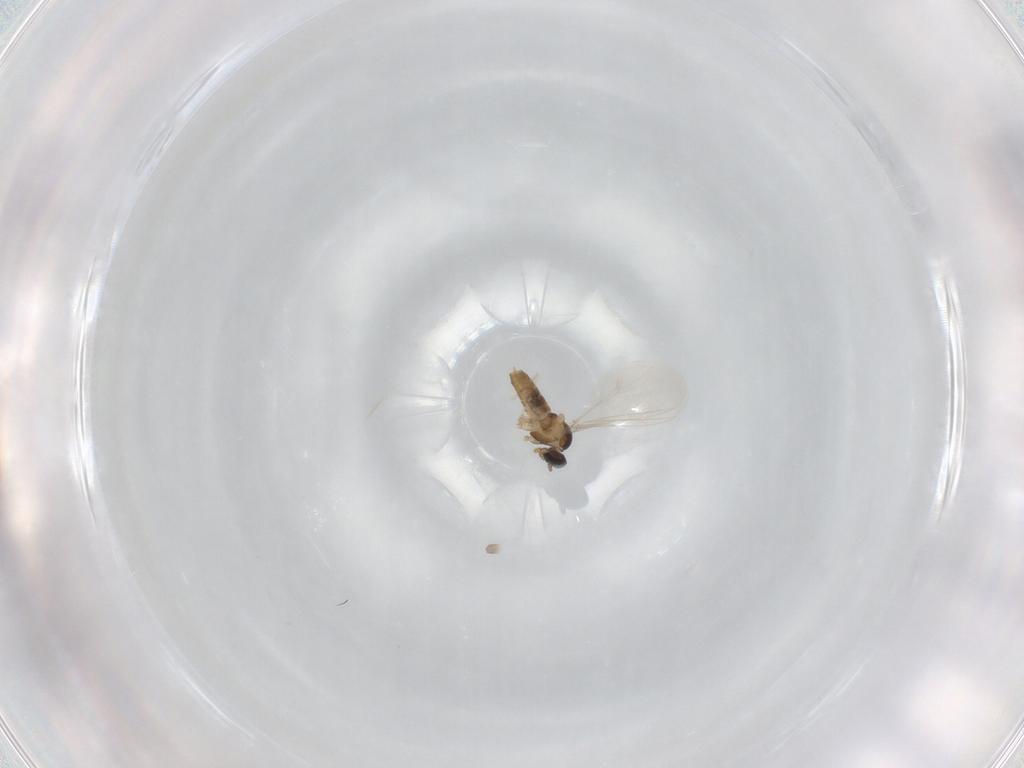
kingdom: Animalia
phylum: Arthropoda
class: Insecta
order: Diptera
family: Cecidomyiidae
